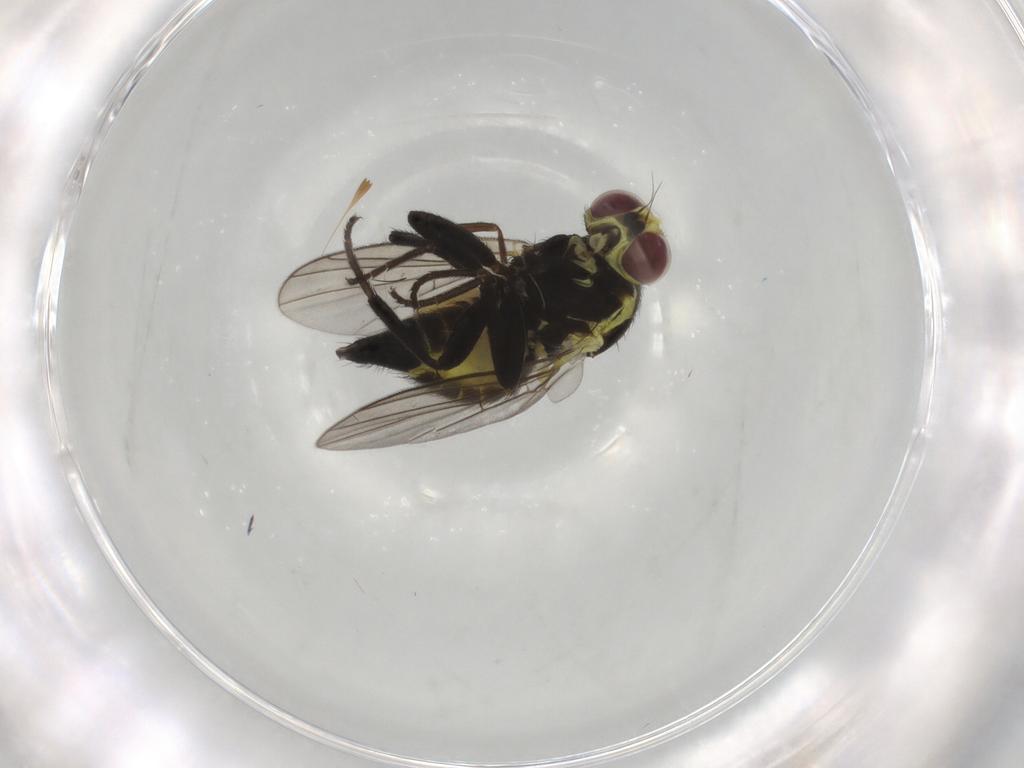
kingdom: Animalia
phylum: Arthropoda
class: Insecta
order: Diptera
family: Agromyzidae
